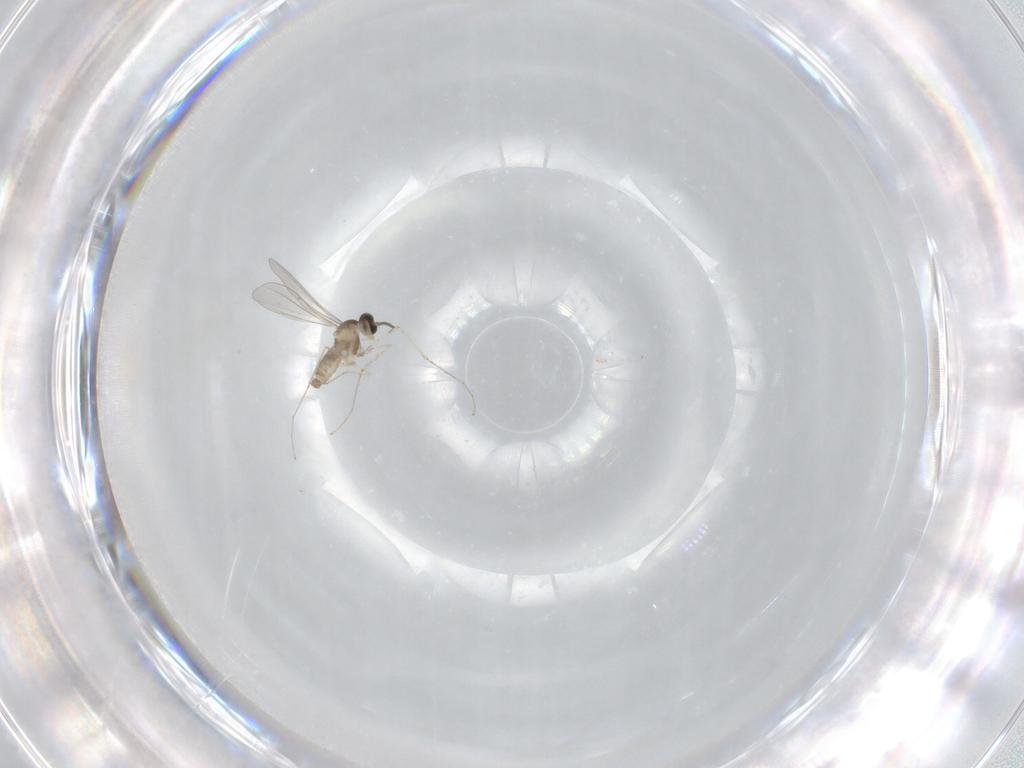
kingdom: Animalia
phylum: Arthropoda
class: Insecta
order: Diptera
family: Cecidomyiidae
